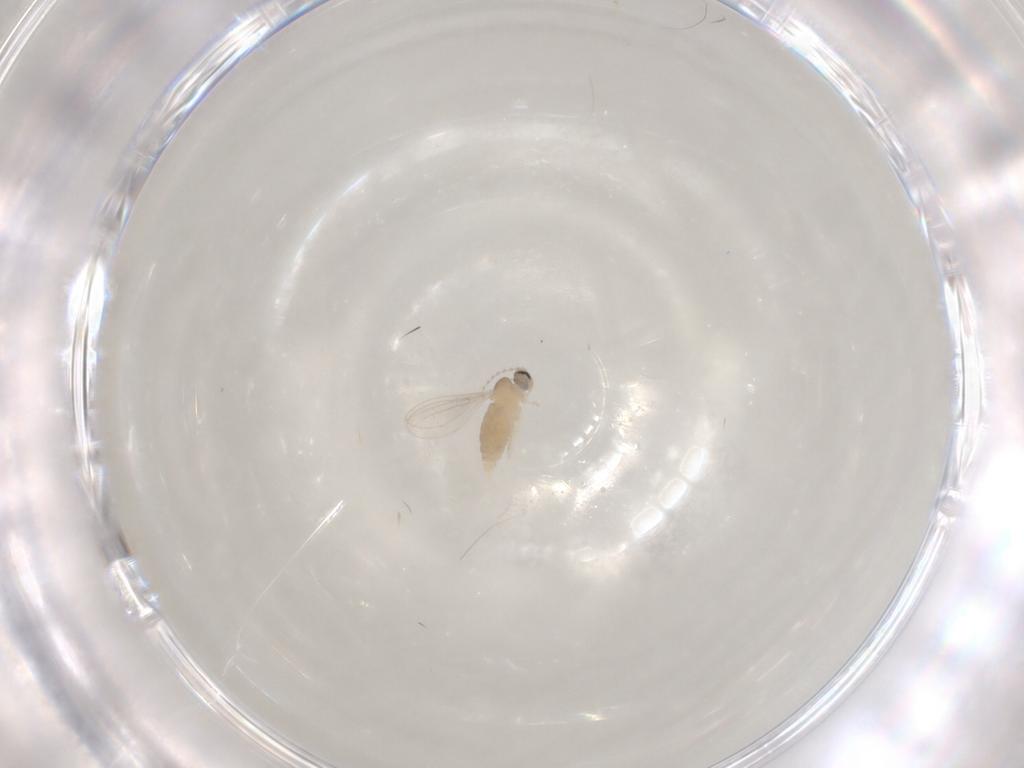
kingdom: Animalia
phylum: Arthropoda
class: Insecta
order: Diptera
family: Cecidomyiidae
